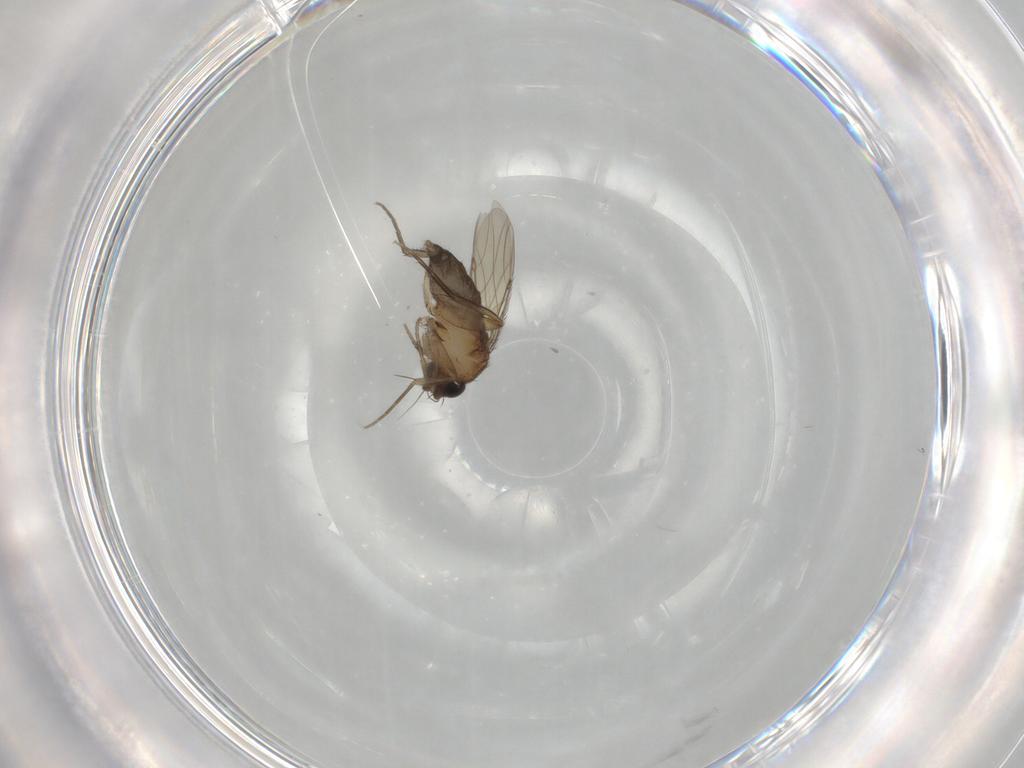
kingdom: Animalia
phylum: Arthropoda
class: Insecta
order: Diptera
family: Phoridae
